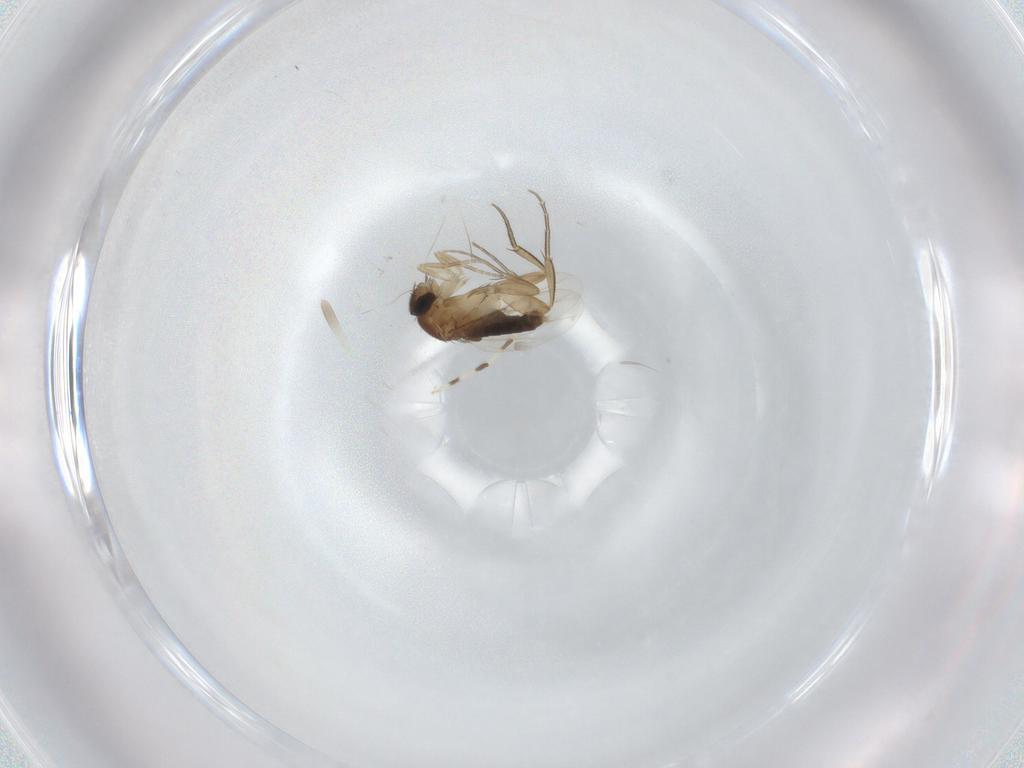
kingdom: Animalia
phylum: Arthropoda
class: Insecta
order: Diptera
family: Phoridae
